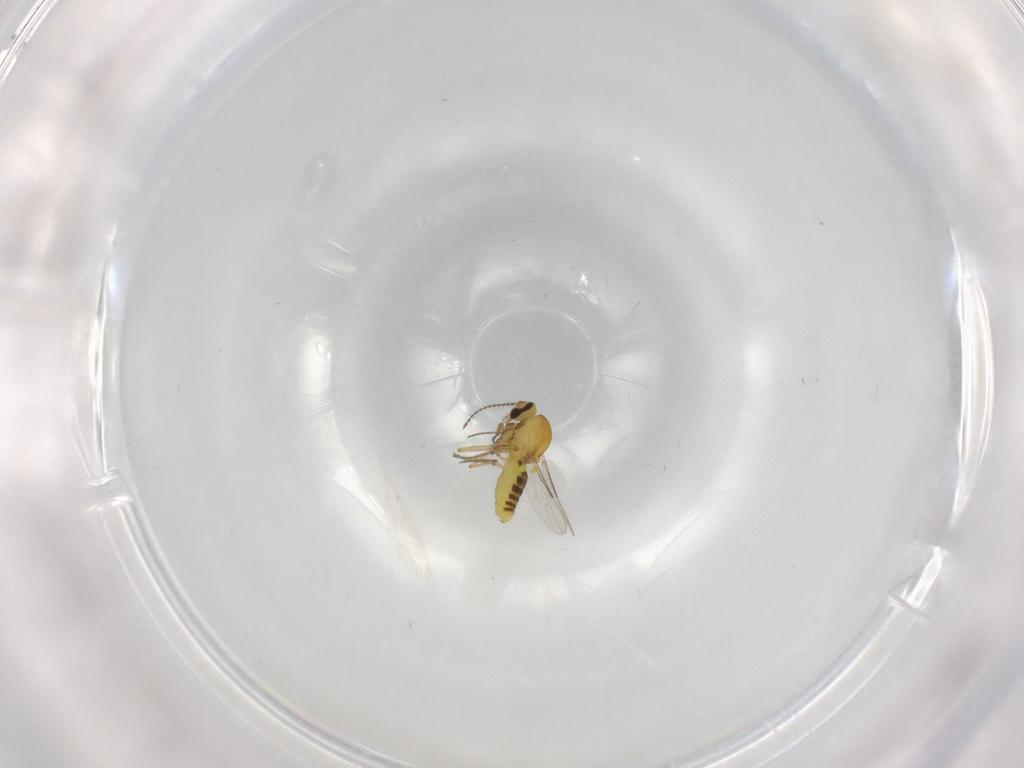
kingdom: Animalia
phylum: Arthropoda
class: Insecta
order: Diptera
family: Ceratopogonidae
